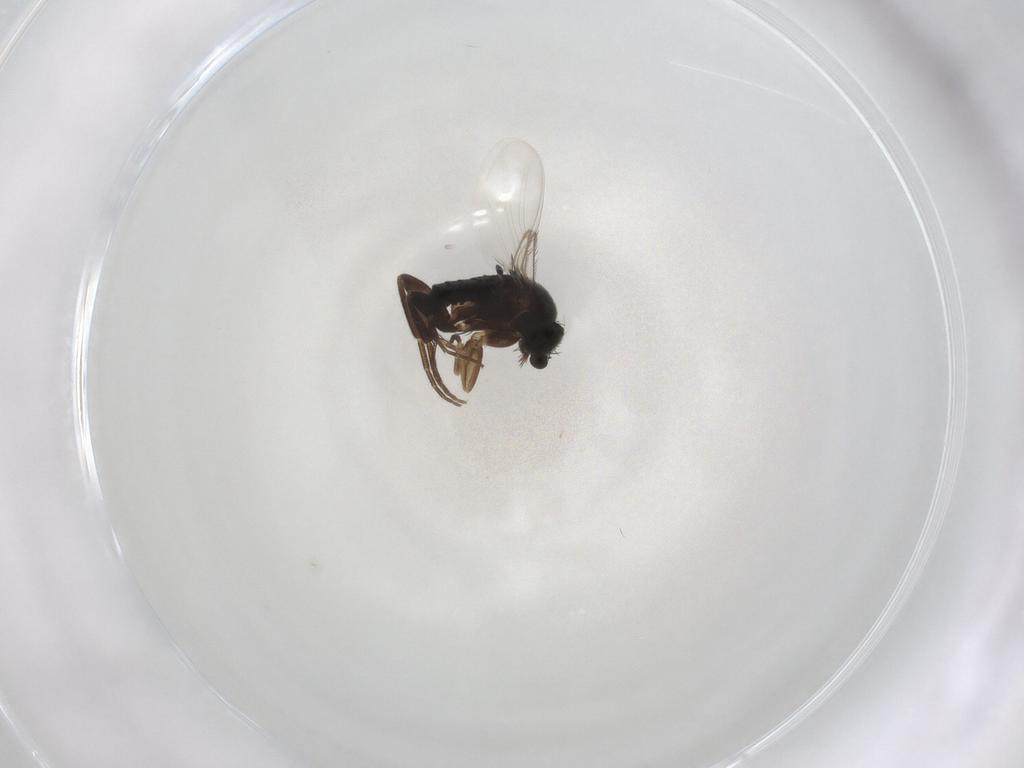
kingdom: Animalia
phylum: Arthropoda
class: Insecta
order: Diptera
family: Phoridae
